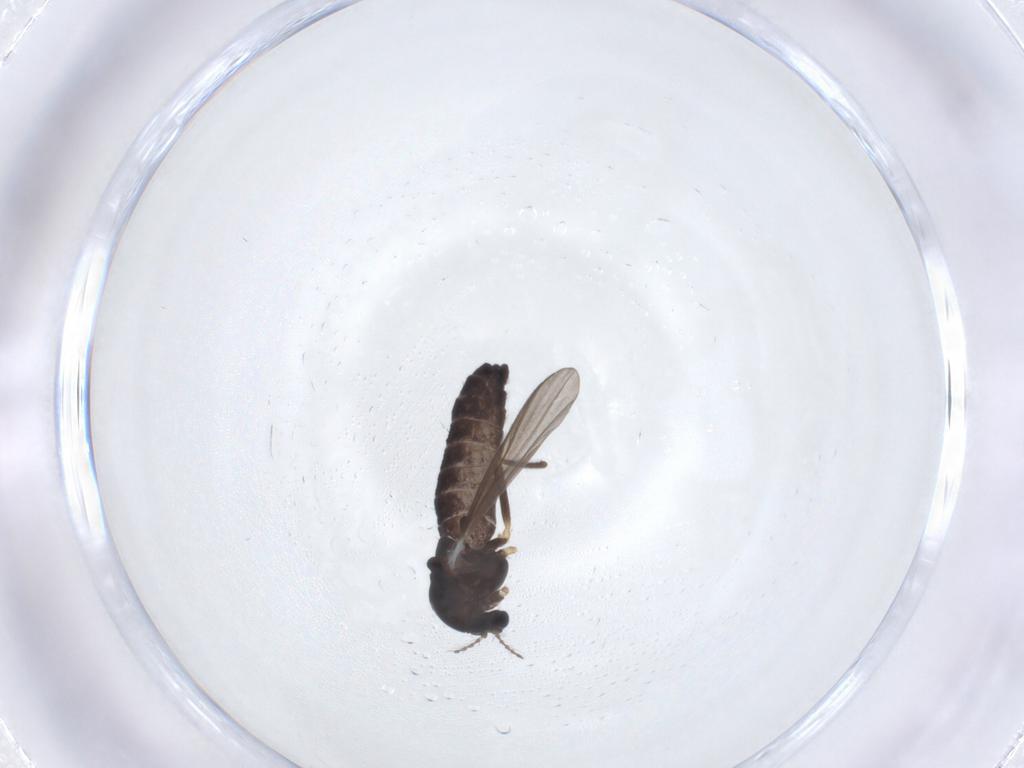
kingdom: Animalia
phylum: Arthropoda
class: Insecta
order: Diptera
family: Chironomidae
